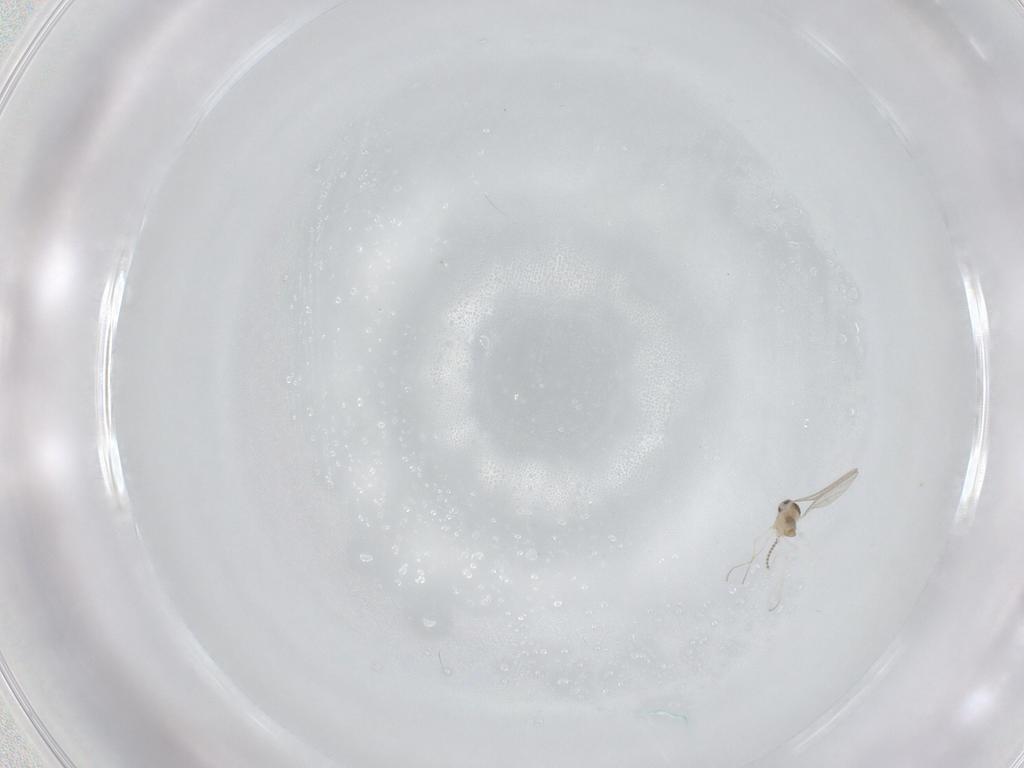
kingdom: Animalia
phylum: Arthropoda
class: Insecta
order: Diptera
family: Cecidomyiidae
